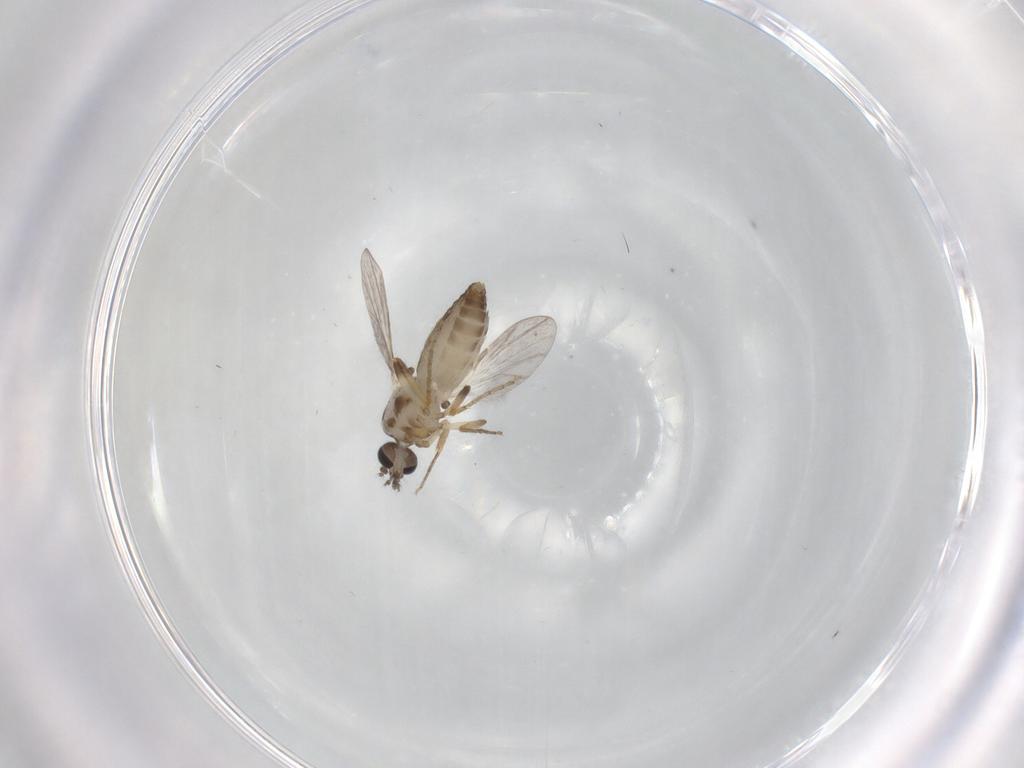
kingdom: Animalia
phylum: Arthropoda
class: Insecta
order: Diptera
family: Ceratopogonidae
